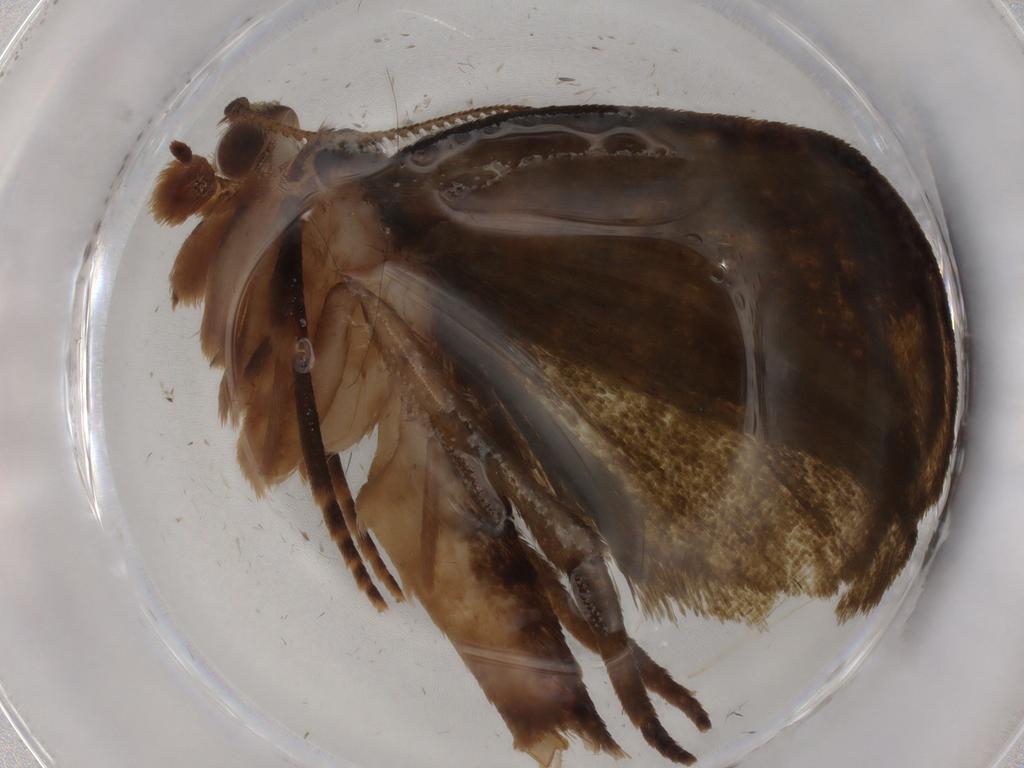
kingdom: Animalia
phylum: Arthropoda
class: Insecta
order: Lepidoptera
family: Geometridae
